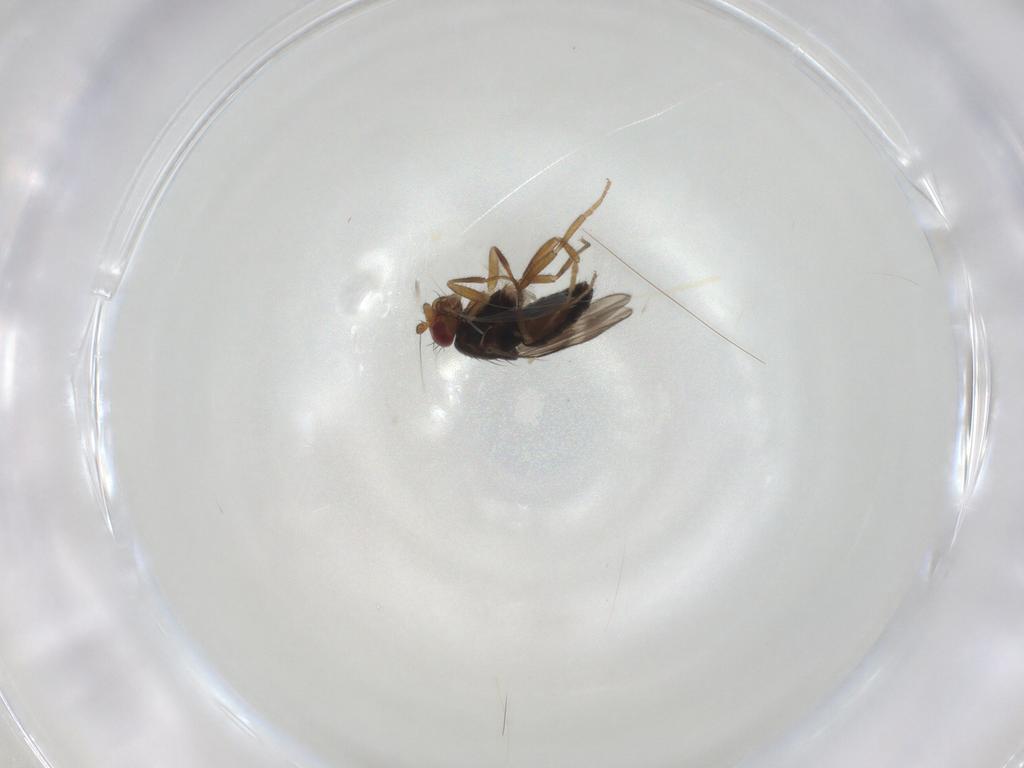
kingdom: Animalia
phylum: Arthropoda
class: Insecta
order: Diptera
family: Sphaeroceridae
